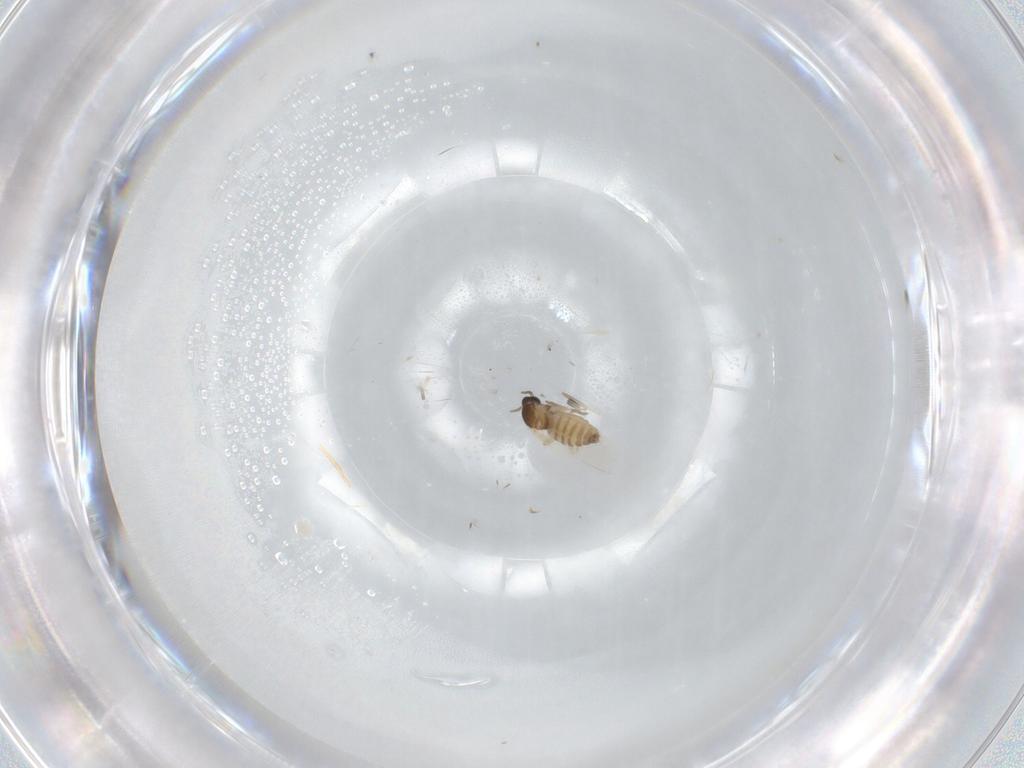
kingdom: Animalia
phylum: Arthropoda
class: Insecta
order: Diptera
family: Cecidomyiidae
